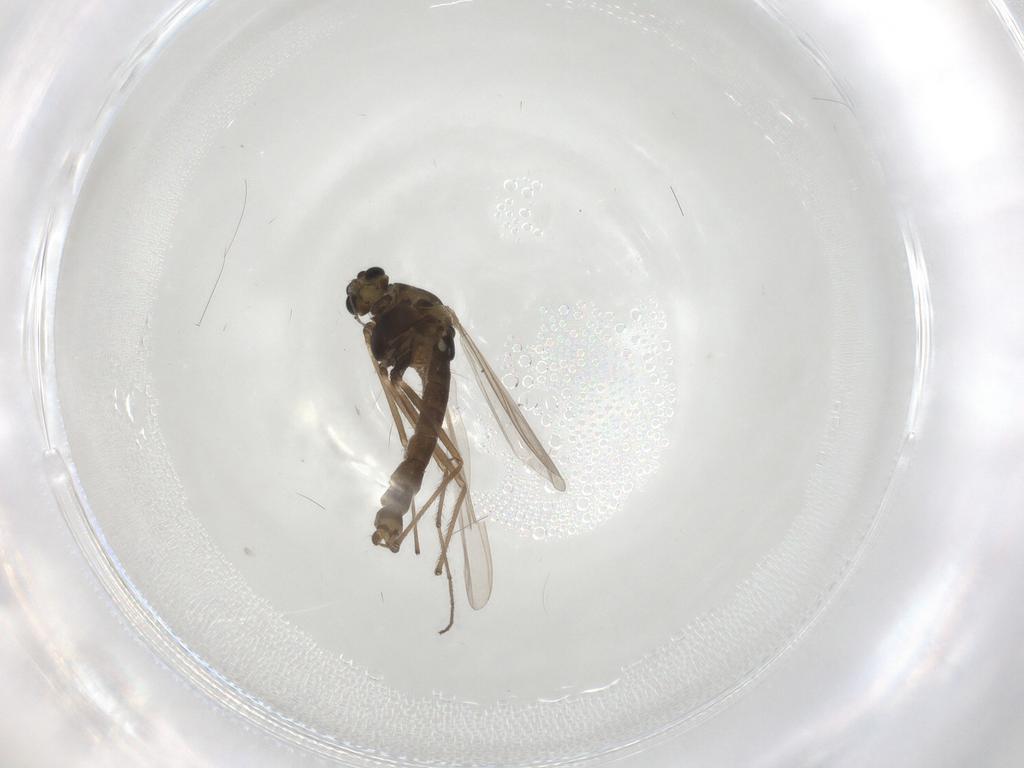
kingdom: Animalia
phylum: Arthropoda
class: Insecta
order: Diptera
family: Chironomidae
